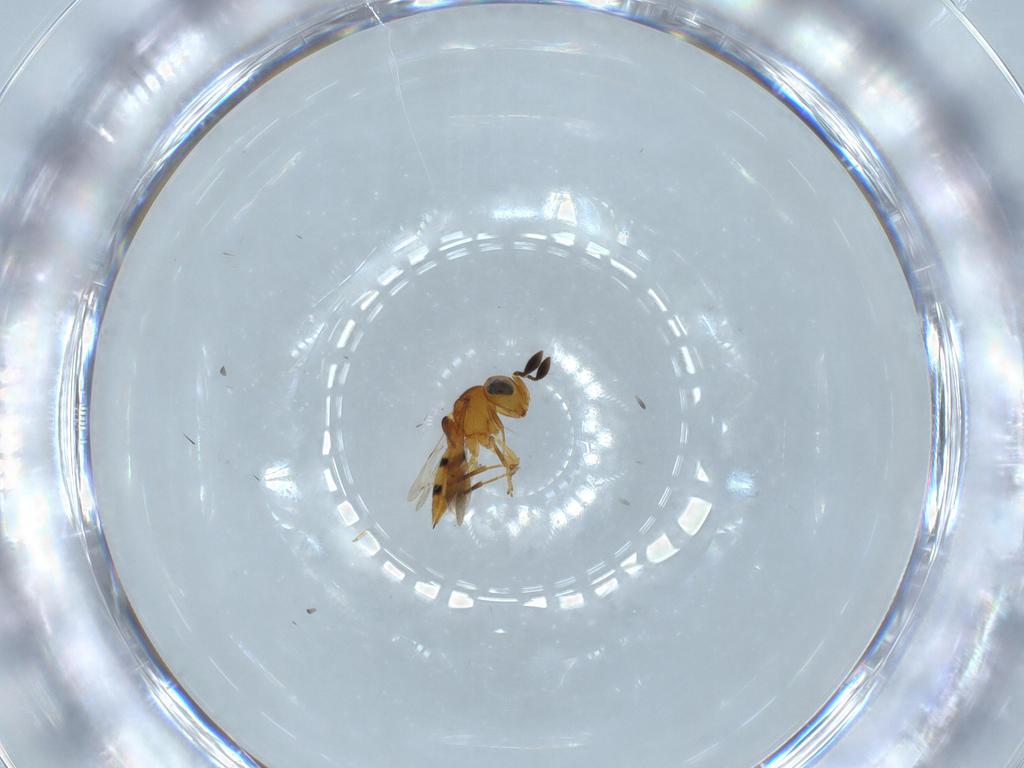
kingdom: Animalia
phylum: Arthropoda
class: Insecta
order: Hymenoptera
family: Scelionidae
